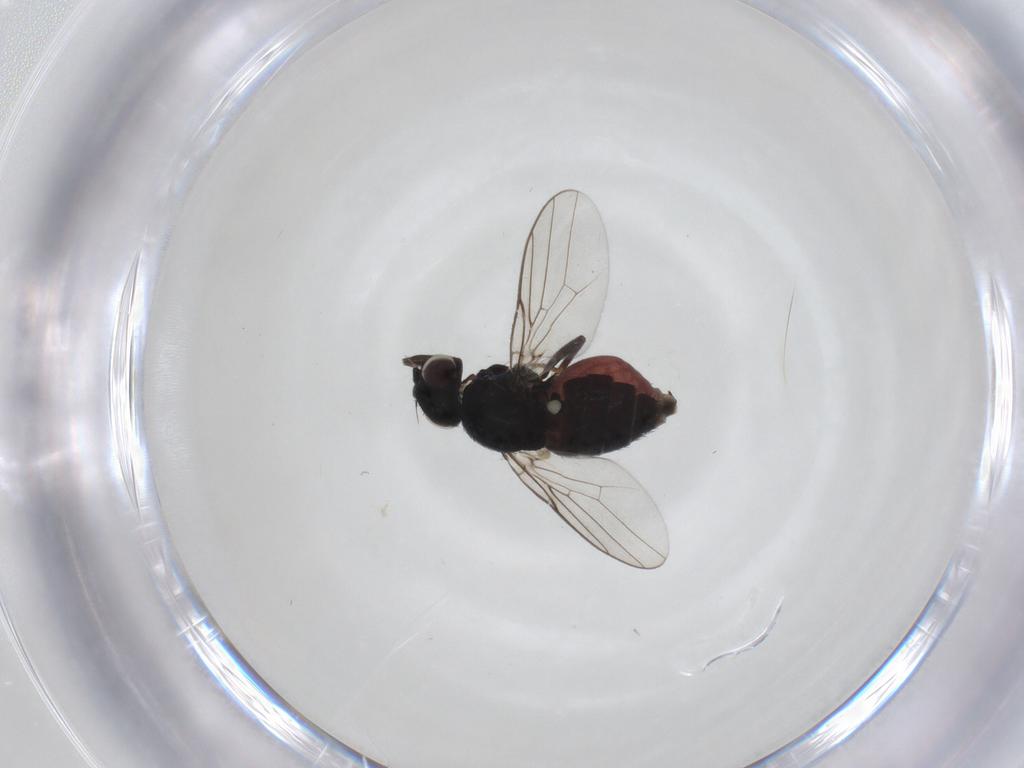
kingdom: Animalia
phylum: Arthropoda
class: Insecta
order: Diptera
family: Chloropidae
